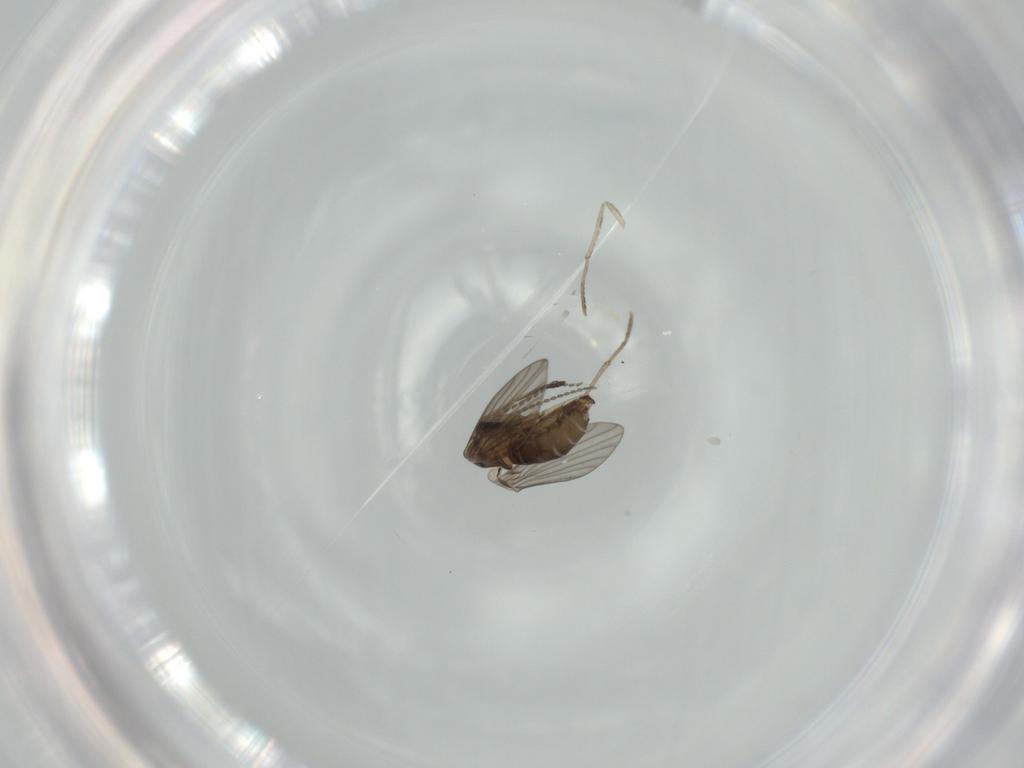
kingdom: Animalia
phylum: Arthropoda
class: Insecta
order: Diptera
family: Psychodidae
